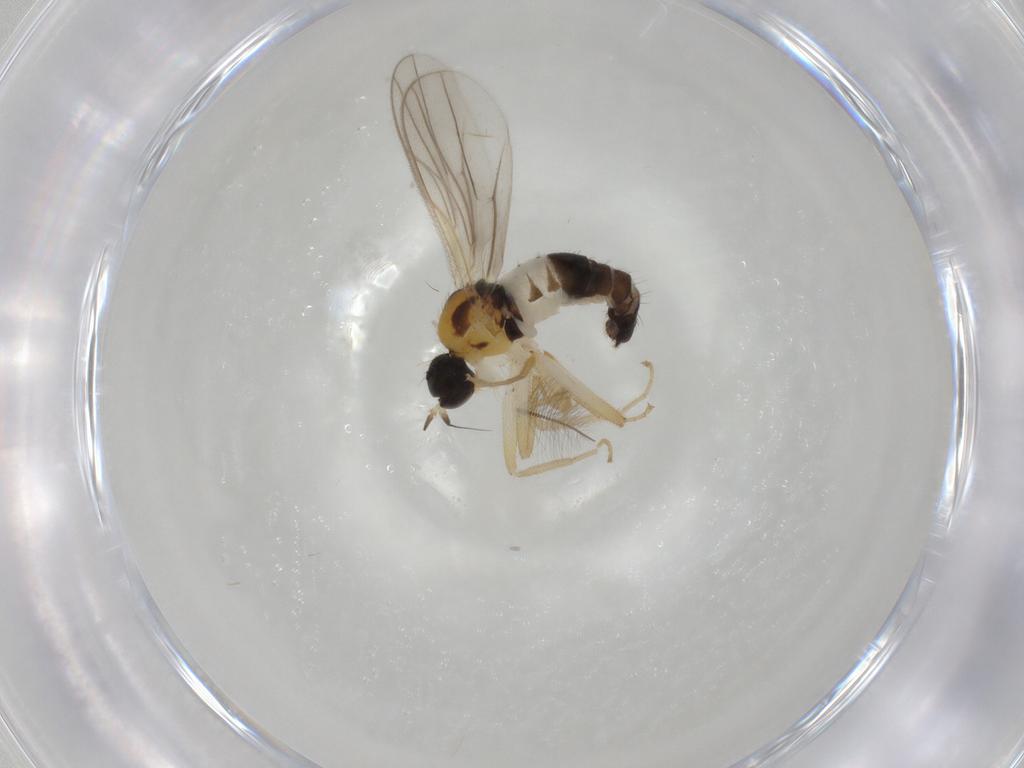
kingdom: Animalia
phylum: Arthropoda
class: Insecta
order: Diptera
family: Hybotidae
